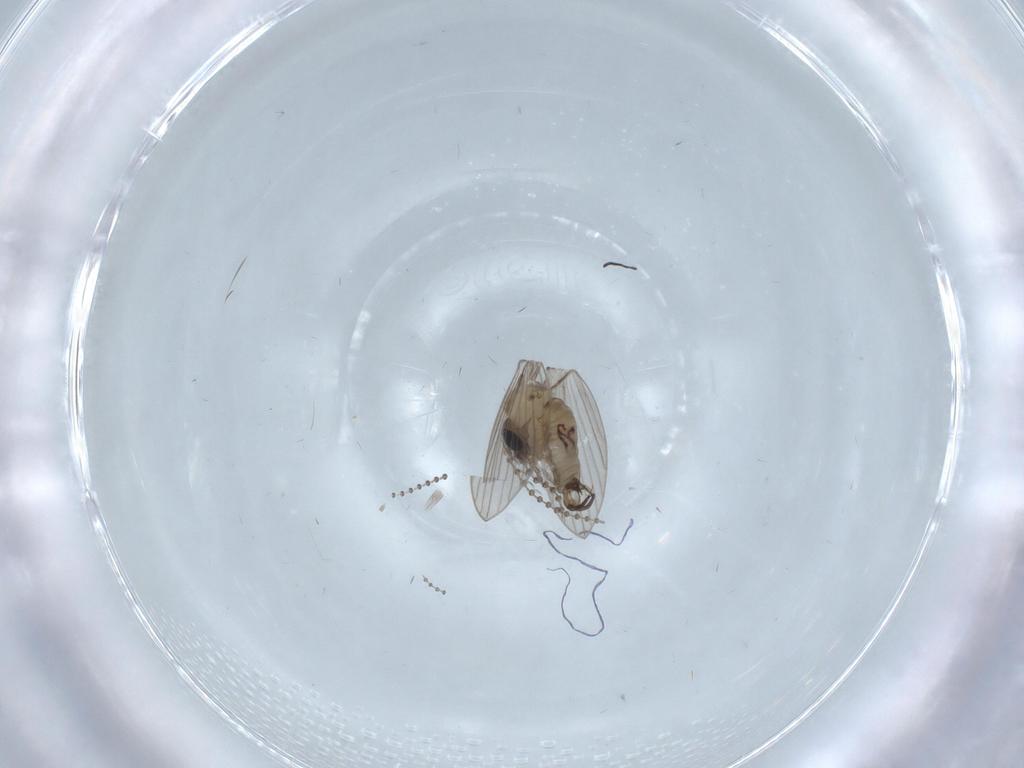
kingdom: Animalia
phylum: Arthropoda
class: Insecta
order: Diptera
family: Psychodidae
